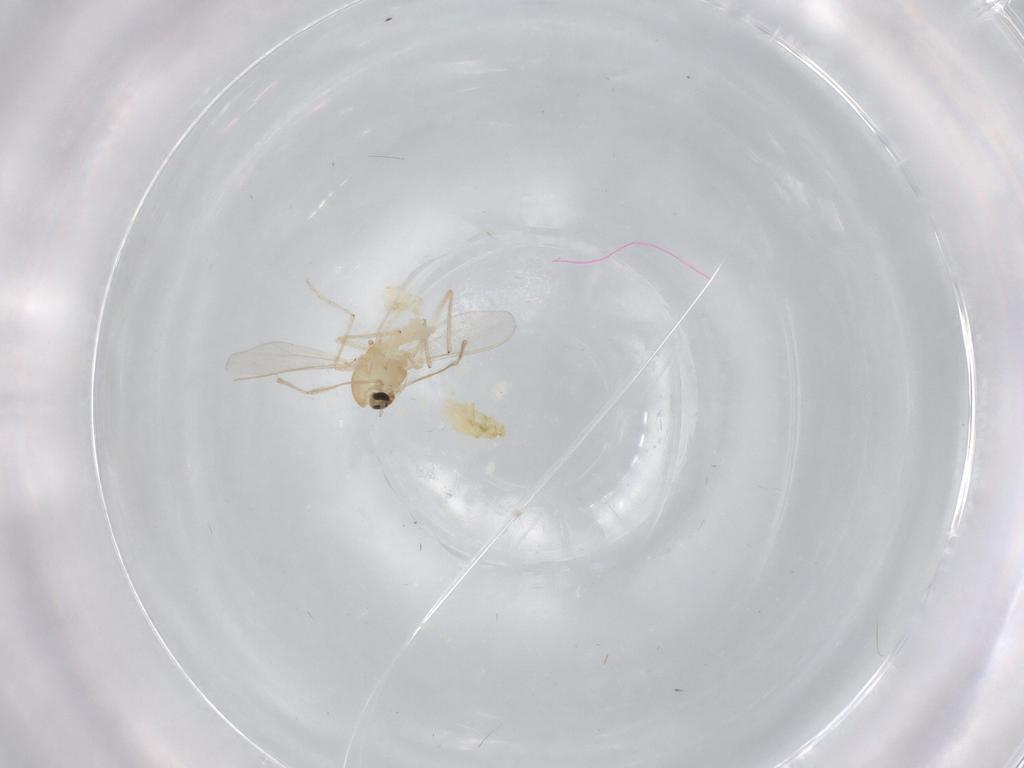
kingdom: Animalia
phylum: Arthropoda
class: Insecta
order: Diptera
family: Chironomidae
